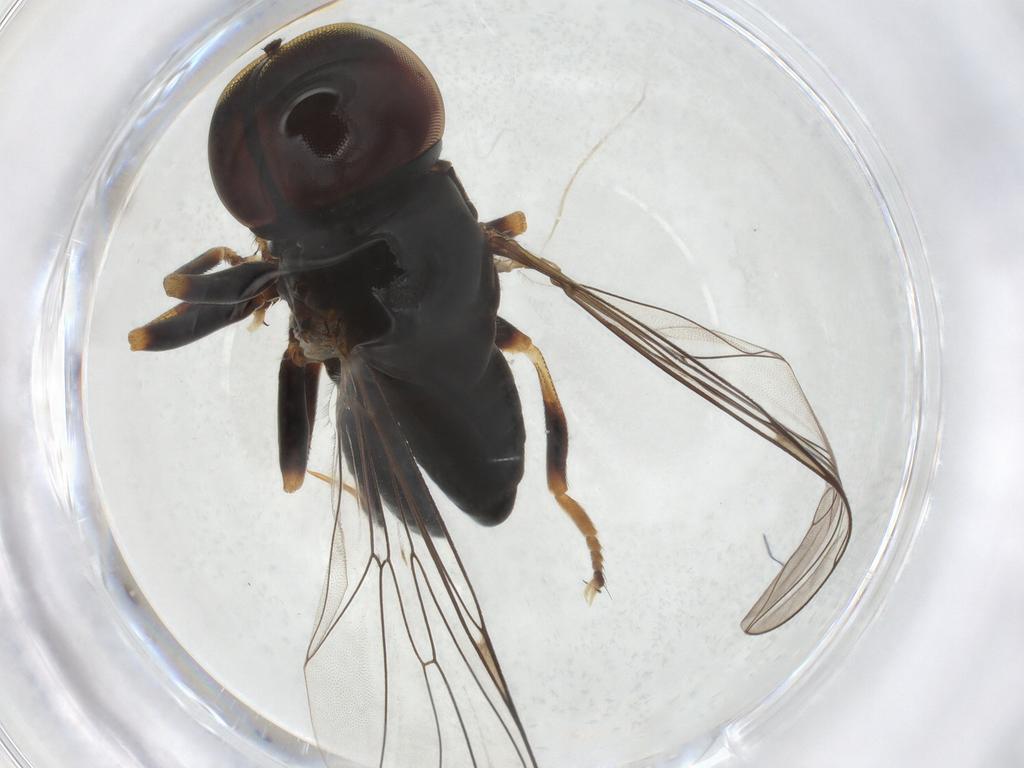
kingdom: Animalia
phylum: Arthropoda
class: Insecta
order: Diptera
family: Pipunculidae
